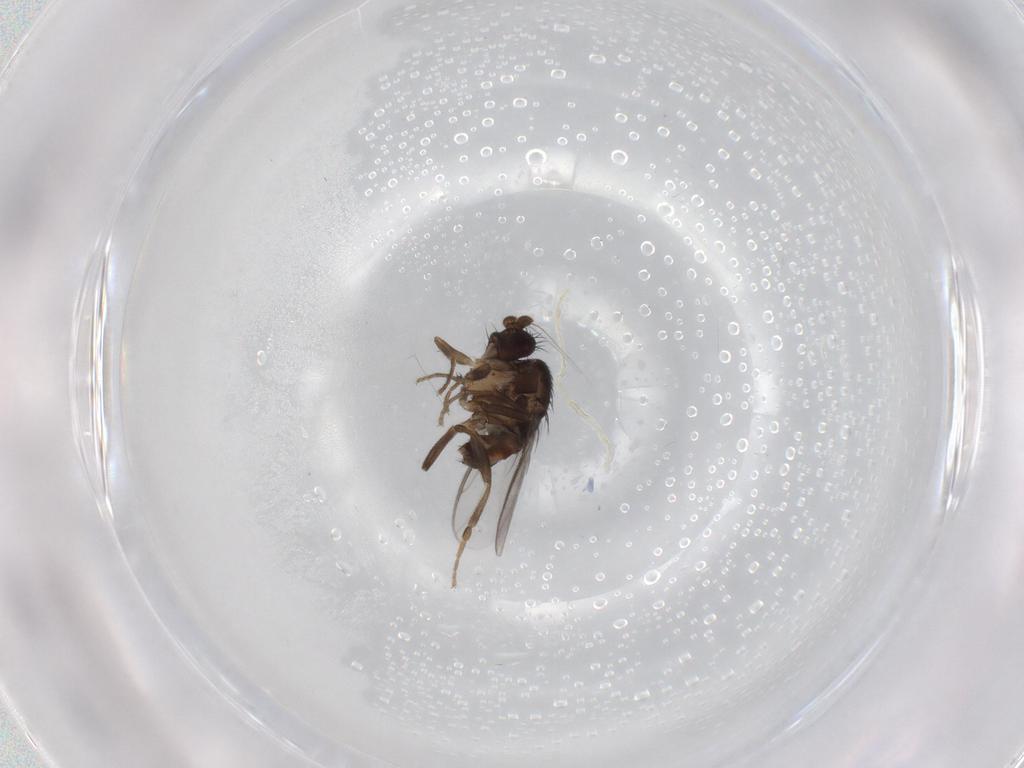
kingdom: Animalia
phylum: Arthropoda
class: Insecta
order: Diptera
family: Sphaeroceridae
